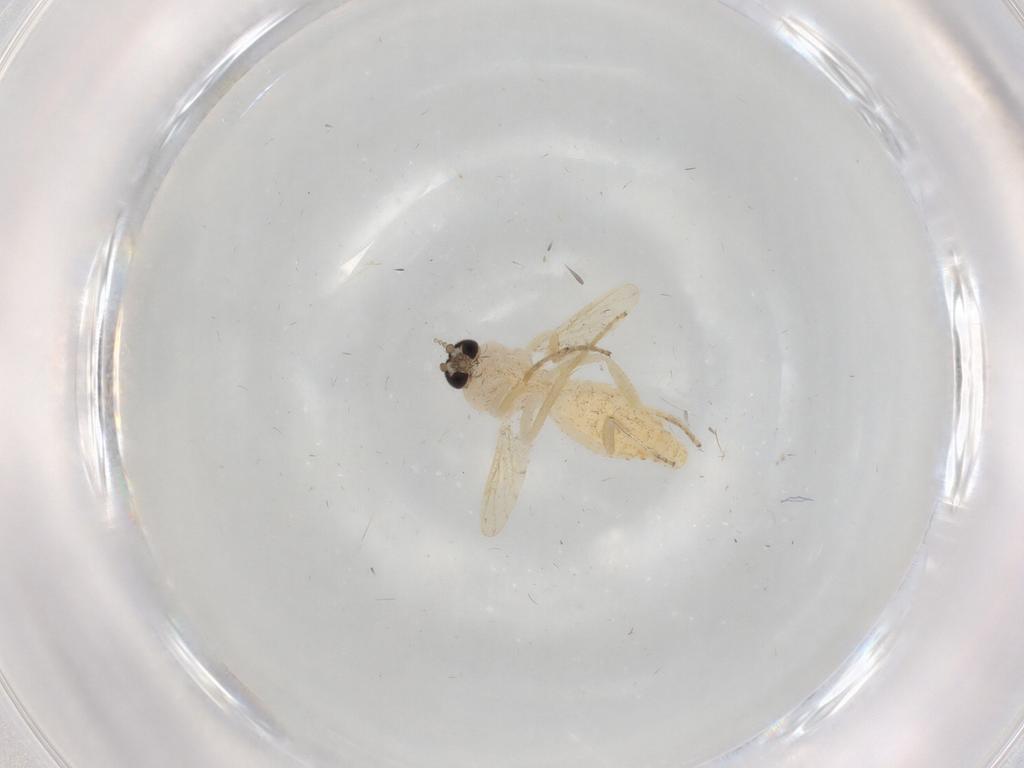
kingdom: Animalia
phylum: Arthropoda
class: Insecta
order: Diptera
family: Ceratopogonidae
